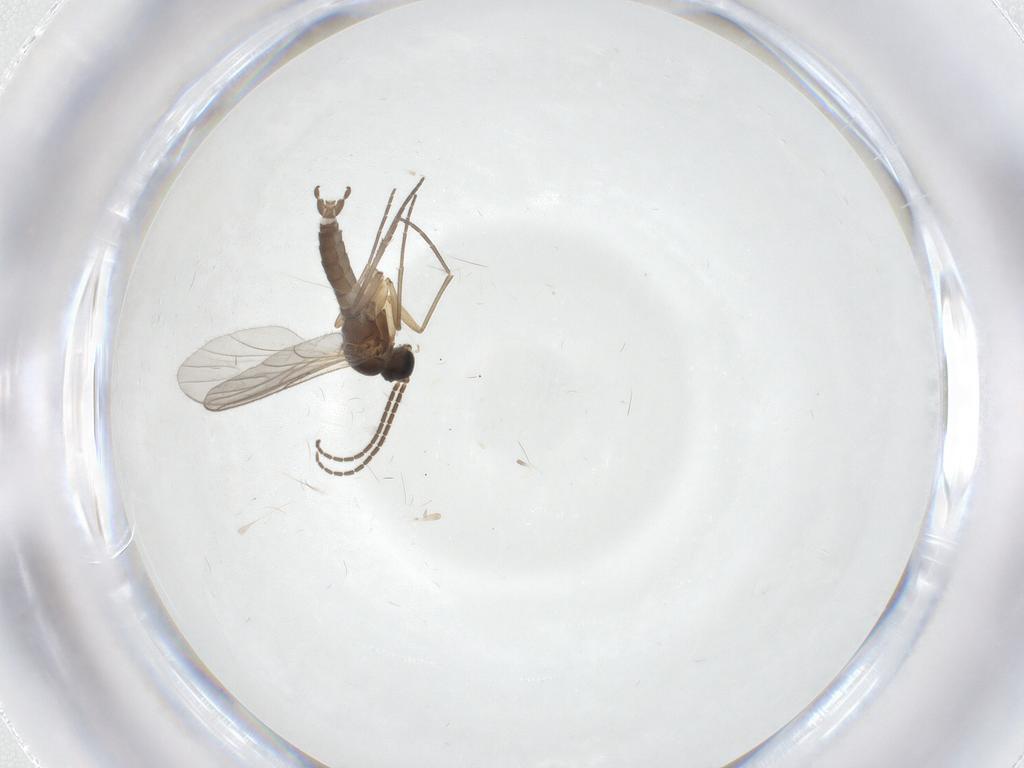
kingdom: Animalia
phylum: Arthropoda
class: Insecta
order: Diptera
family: Sciaridae
